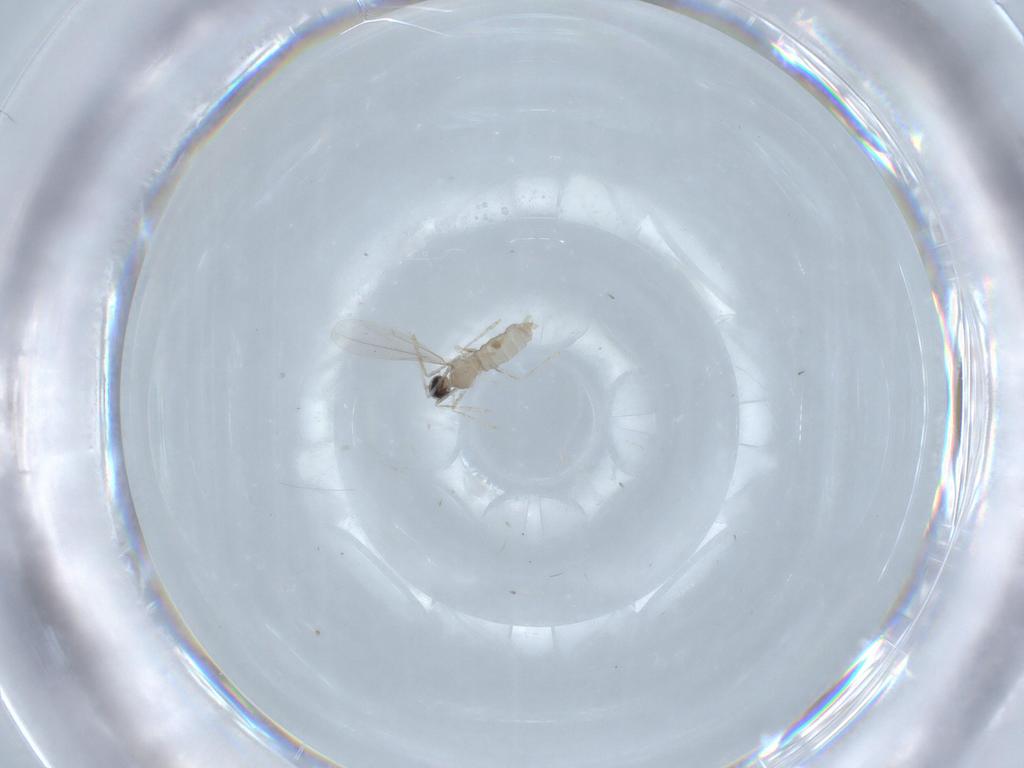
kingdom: Animalia
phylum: Arthropoda
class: Insecta
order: Diptera
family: Cecidomyiidae
